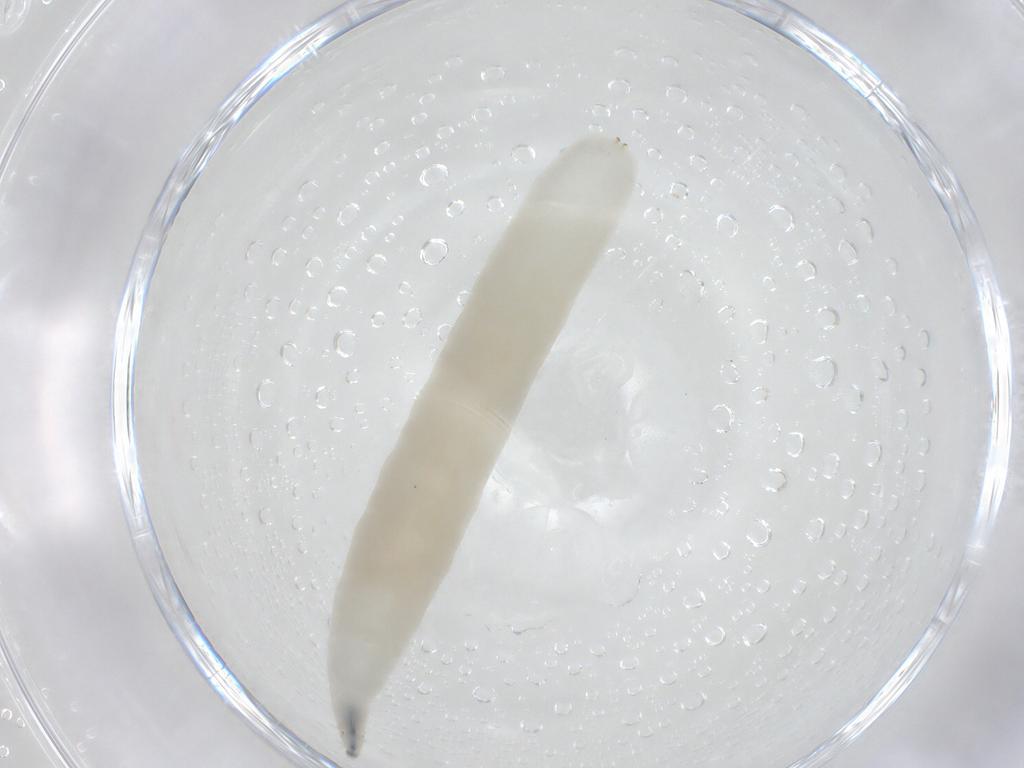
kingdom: Animalia
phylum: Arthropoda
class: Insecta
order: Diptera
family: Muscidae
